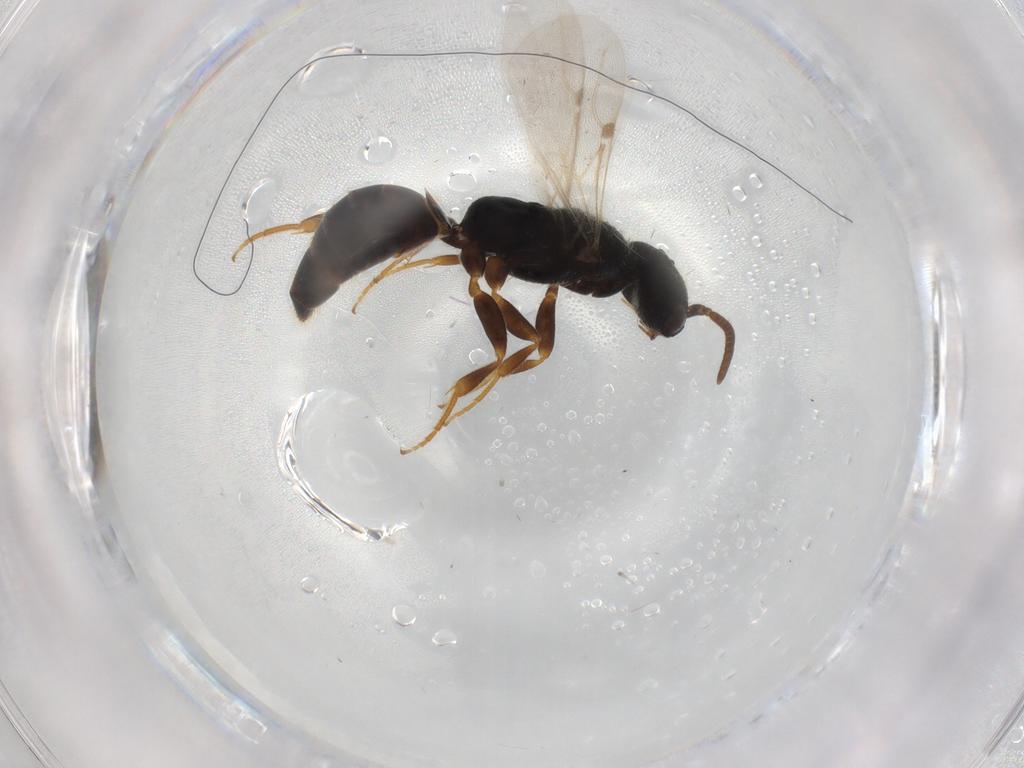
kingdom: Animalia
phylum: Arthropoda
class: Insecta
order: Hymenoptera
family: Bethylidae
